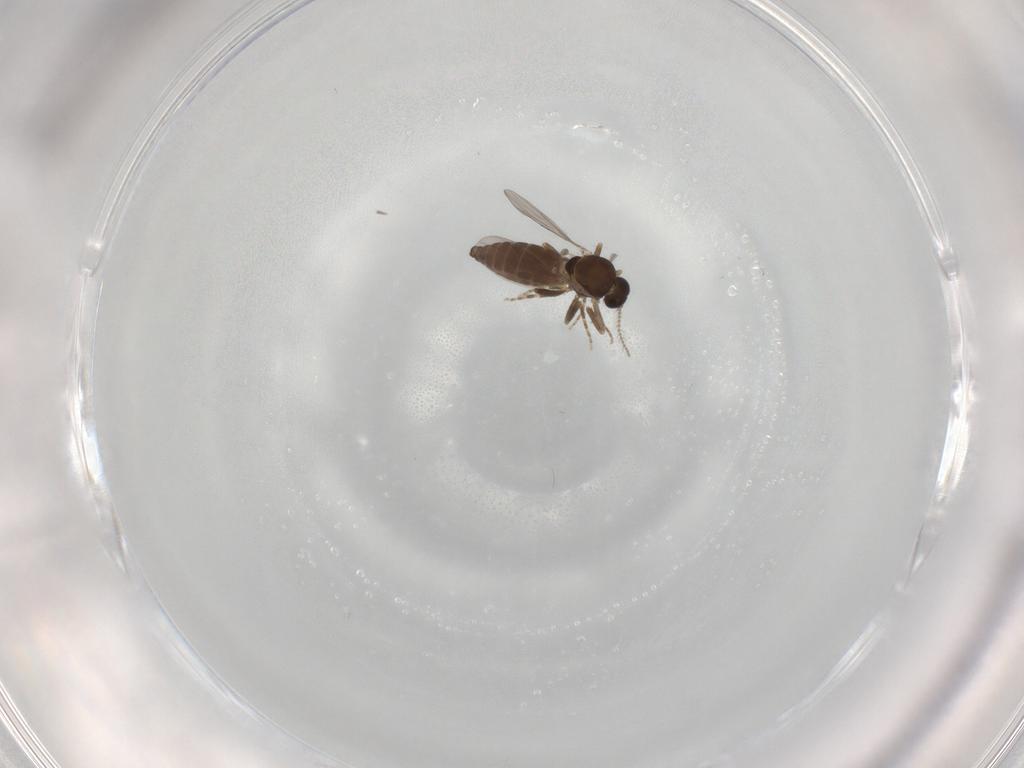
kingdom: Animalia
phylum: Arthropoda
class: Insecta
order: Diptera
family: Ceratopogonidae
